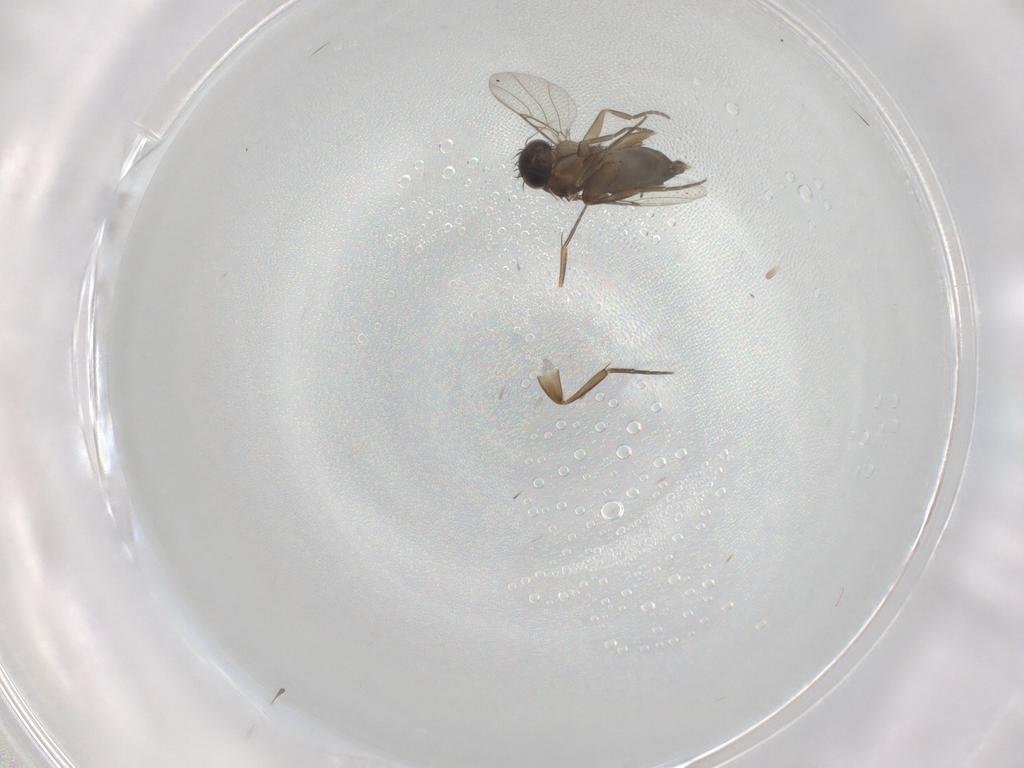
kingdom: Animalia
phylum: Arthropoda
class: Insecta
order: Diptera
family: Phoridae
